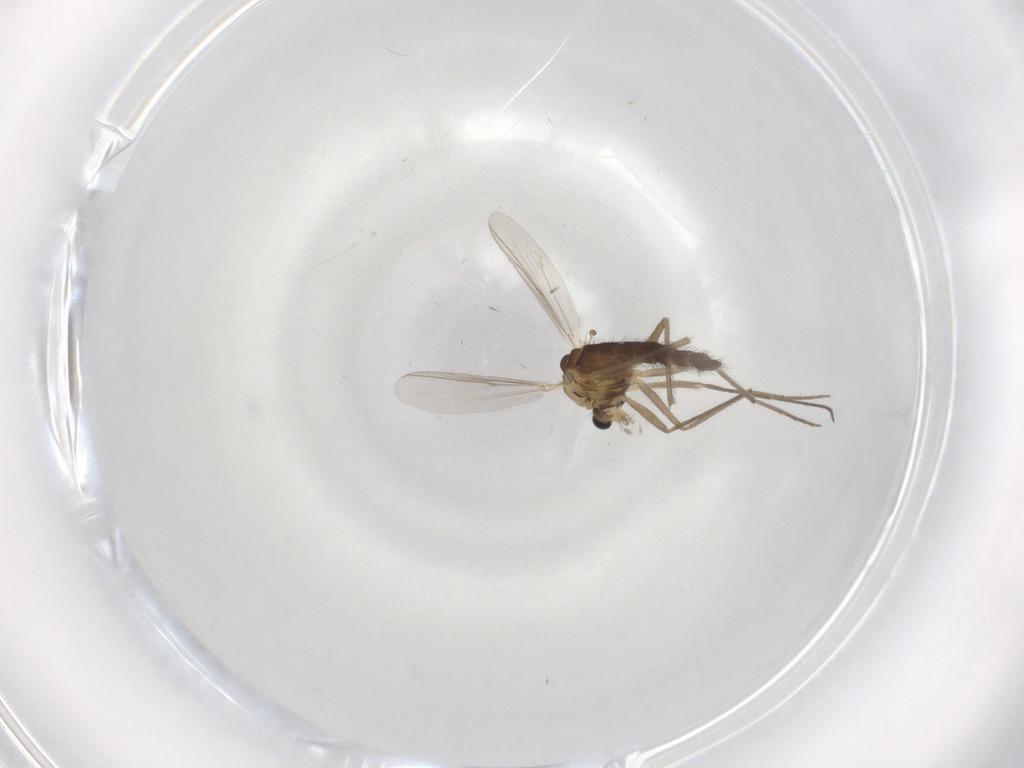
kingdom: Animalia
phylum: Arthropoda
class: Insecta
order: Diptera
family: Chironomidae
